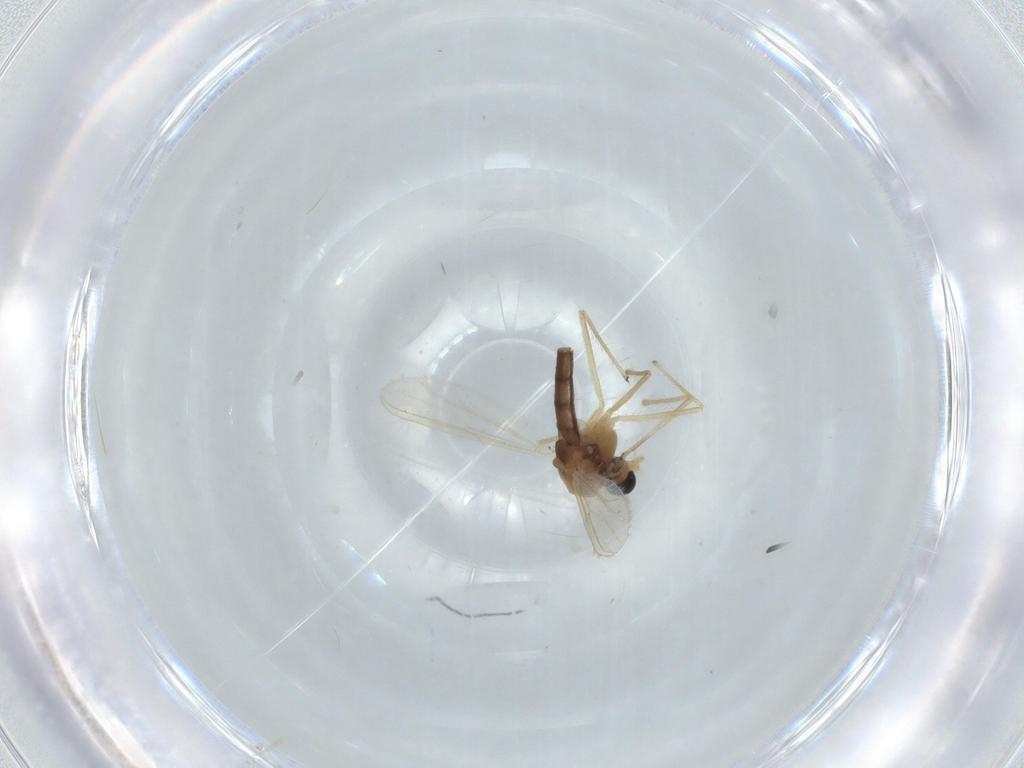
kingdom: Animalia
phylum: Arthropoda
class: Insecta
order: Diptera
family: Chironomidae
